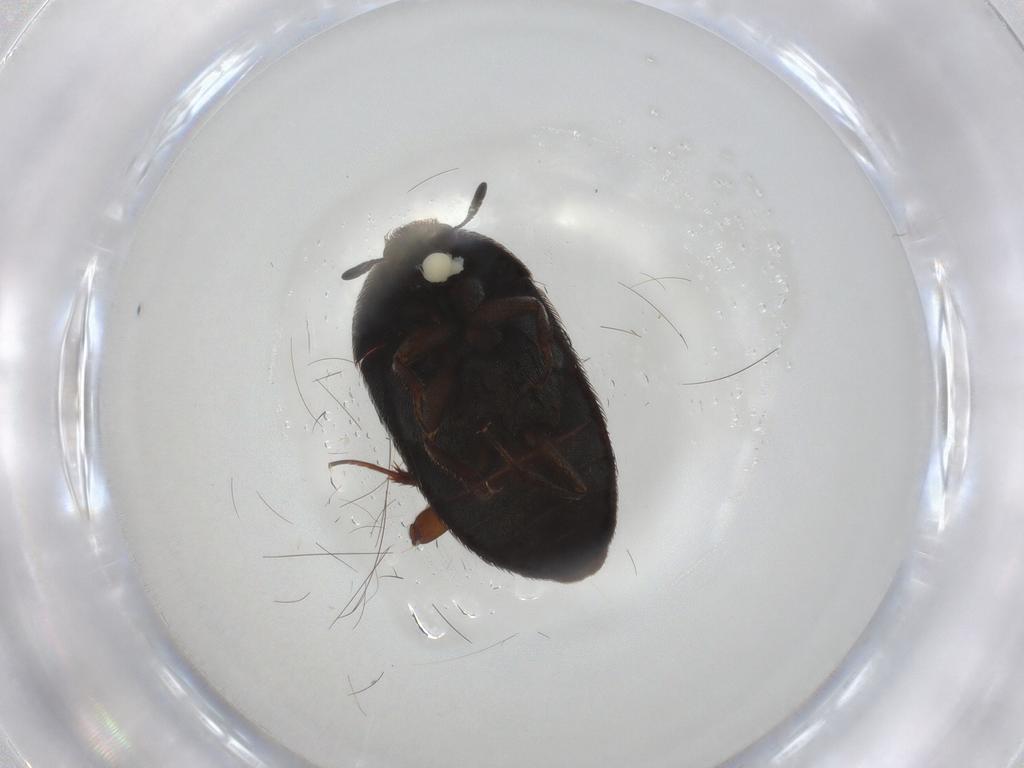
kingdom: Animalia
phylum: Arthropoda
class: Insecta
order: Coleoptera
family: Dermestidae
